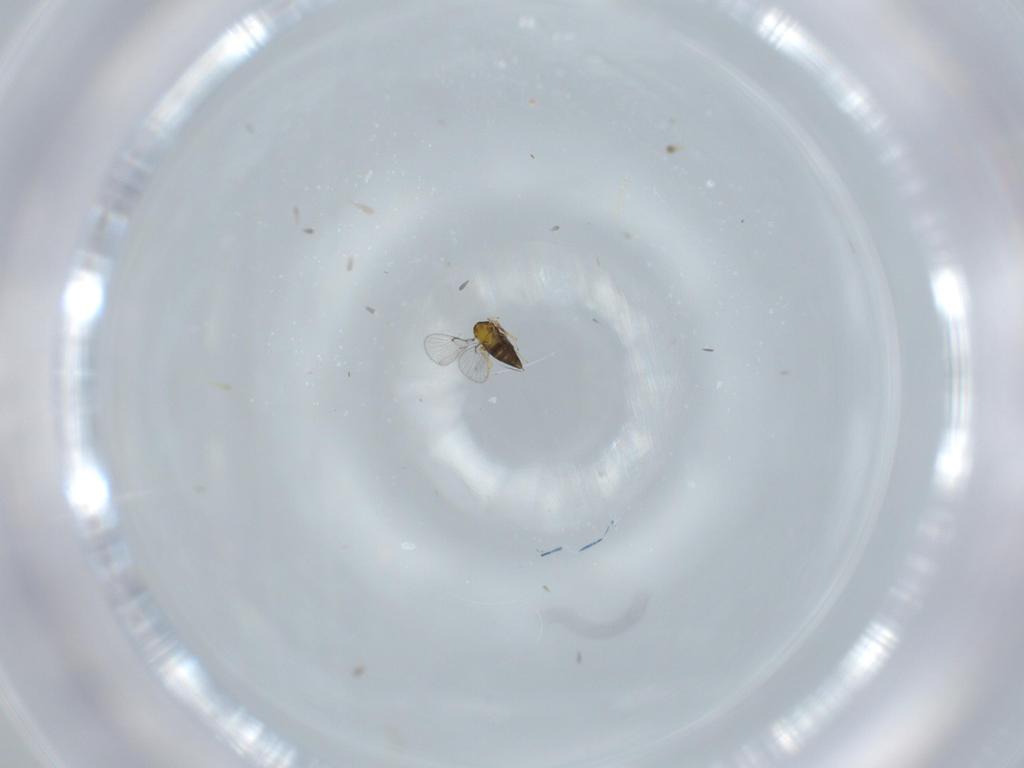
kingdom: Animalia
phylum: Arthropoda
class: Insecta
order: Hymenoptera
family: Trichogrammatidae
